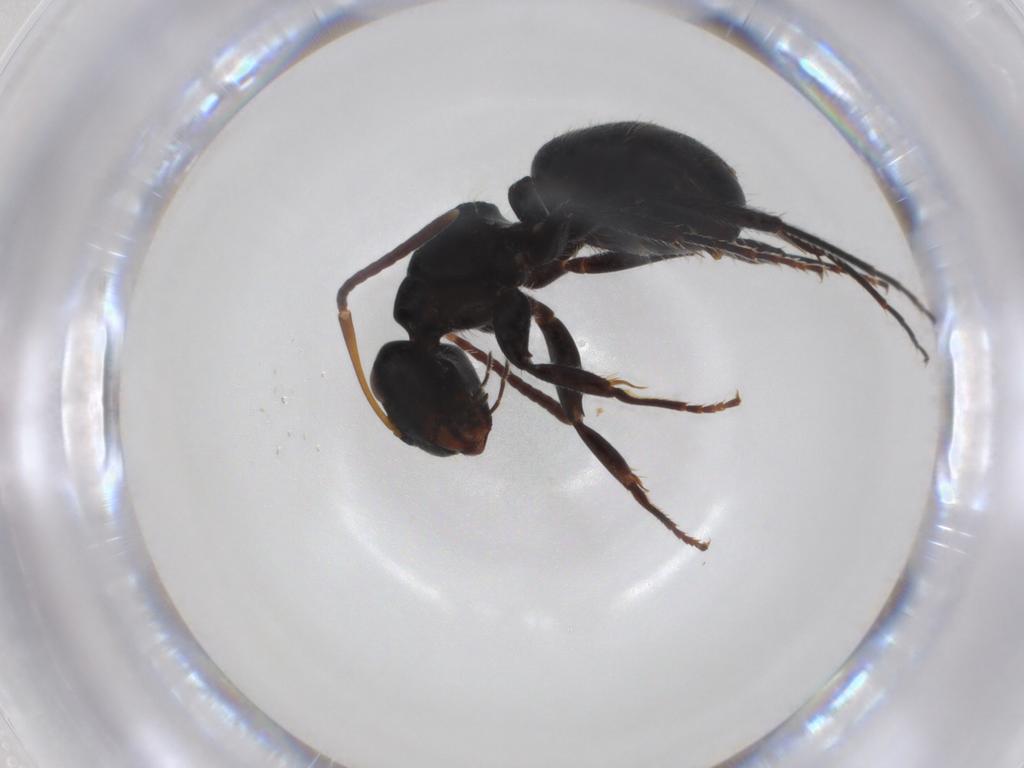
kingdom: Animalia
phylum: Arthropoda
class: Insecta
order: Hymenoptera
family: Formicidae
